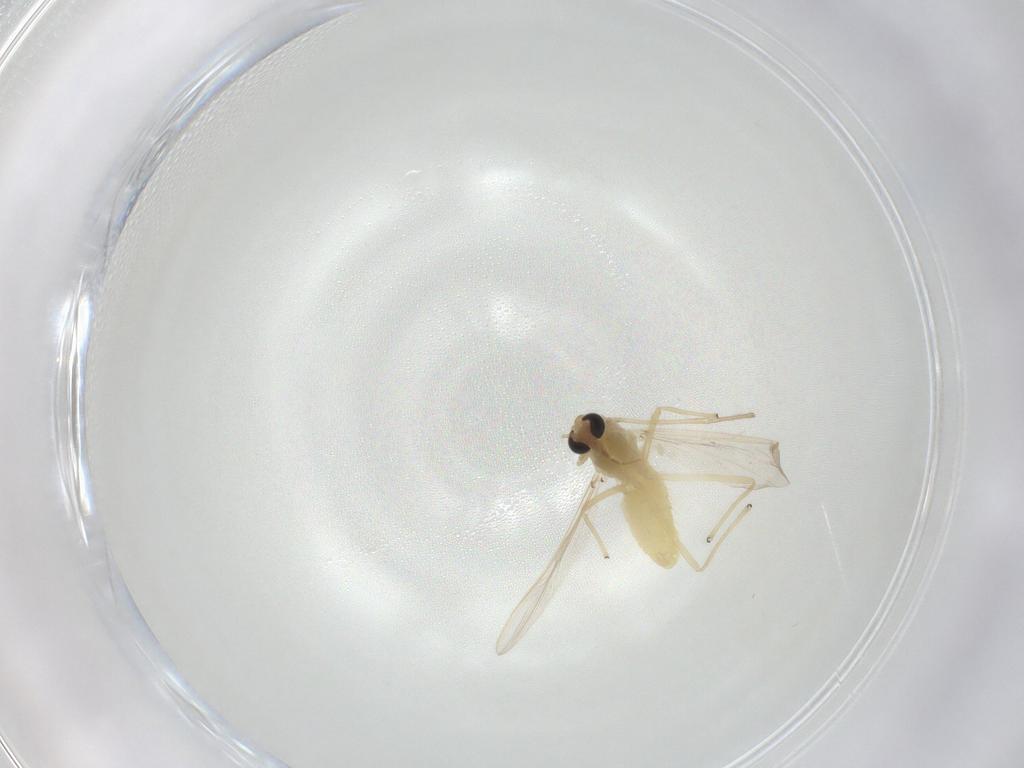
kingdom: Animalia
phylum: Arthropoda
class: Insecta
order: Diptera
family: Chironomidae
